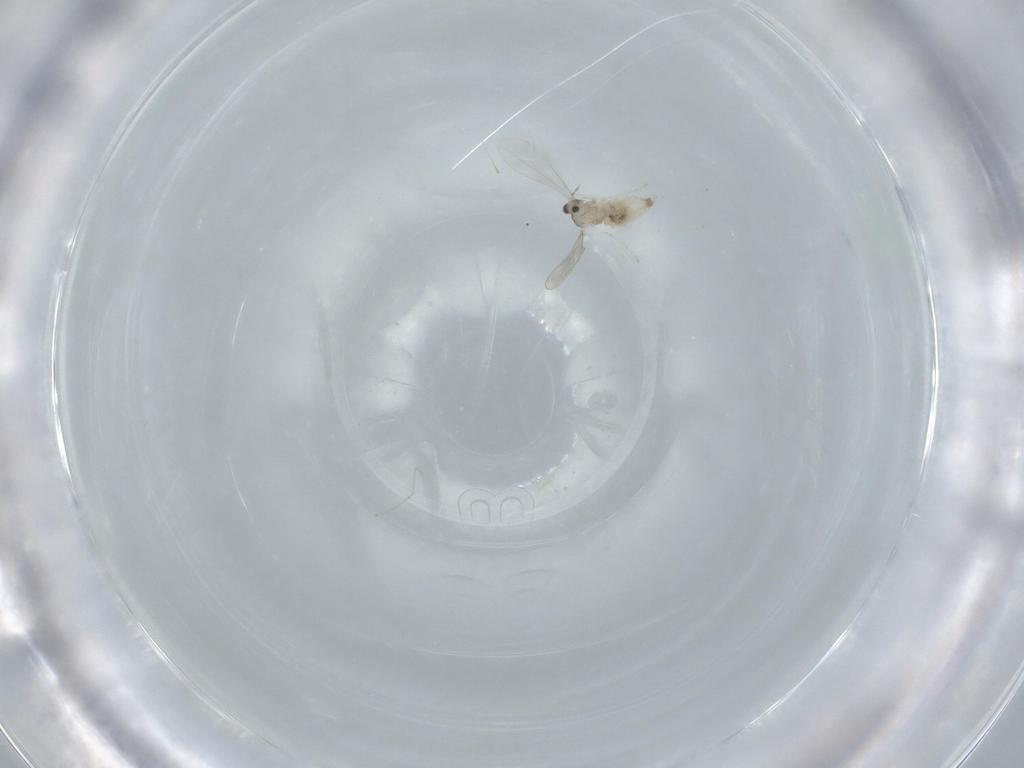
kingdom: Animalia
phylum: Arthropoda
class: Insecta
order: Diptera
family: Cecidomyiidae
